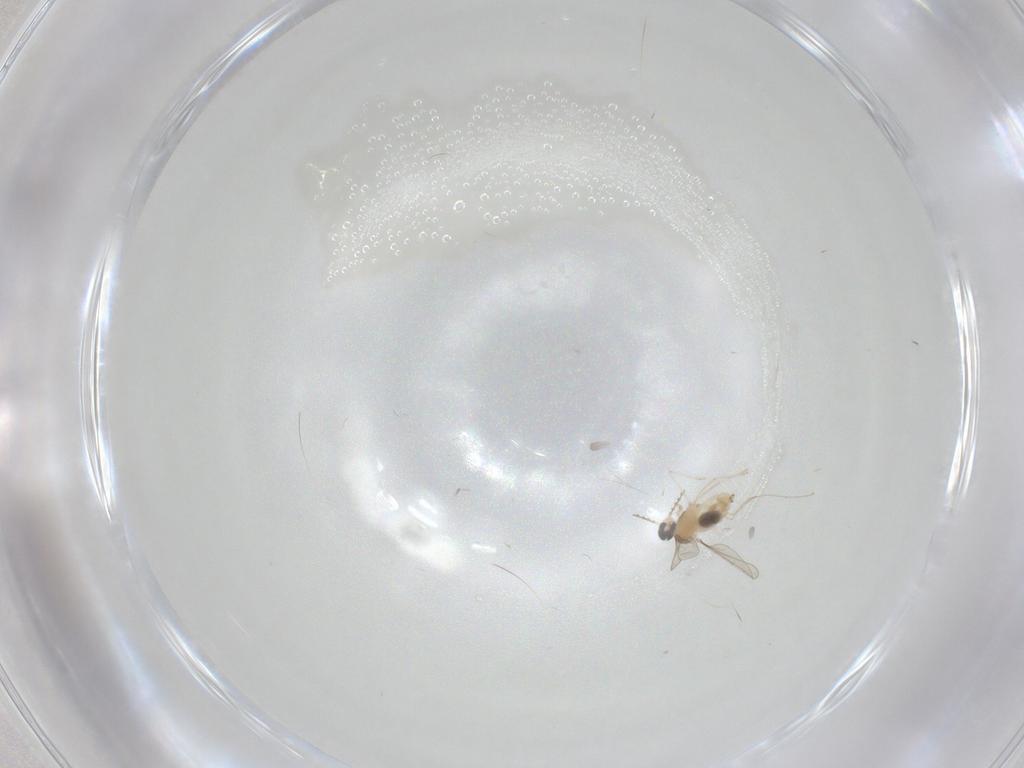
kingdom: Animalia
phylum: Arthropoda
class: Insecta
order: Diptera
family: Cecidomyiidae
